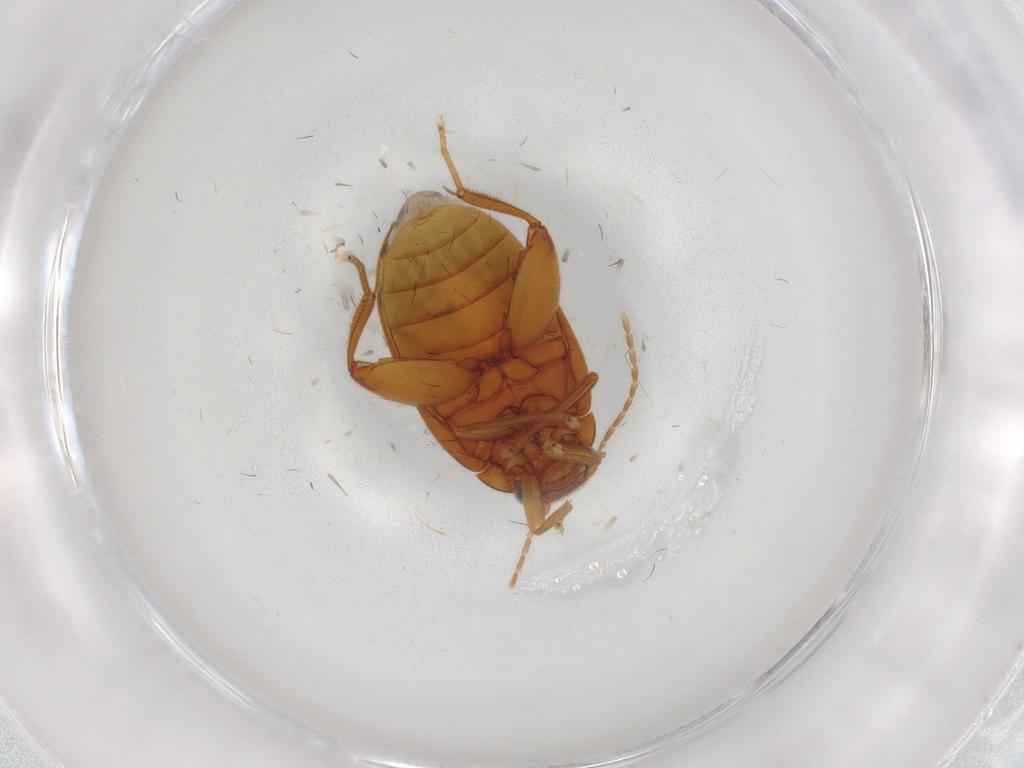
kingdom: Animalia
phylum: Arthropoda
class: Insecta
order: Coleoptera
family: Scirtidae
